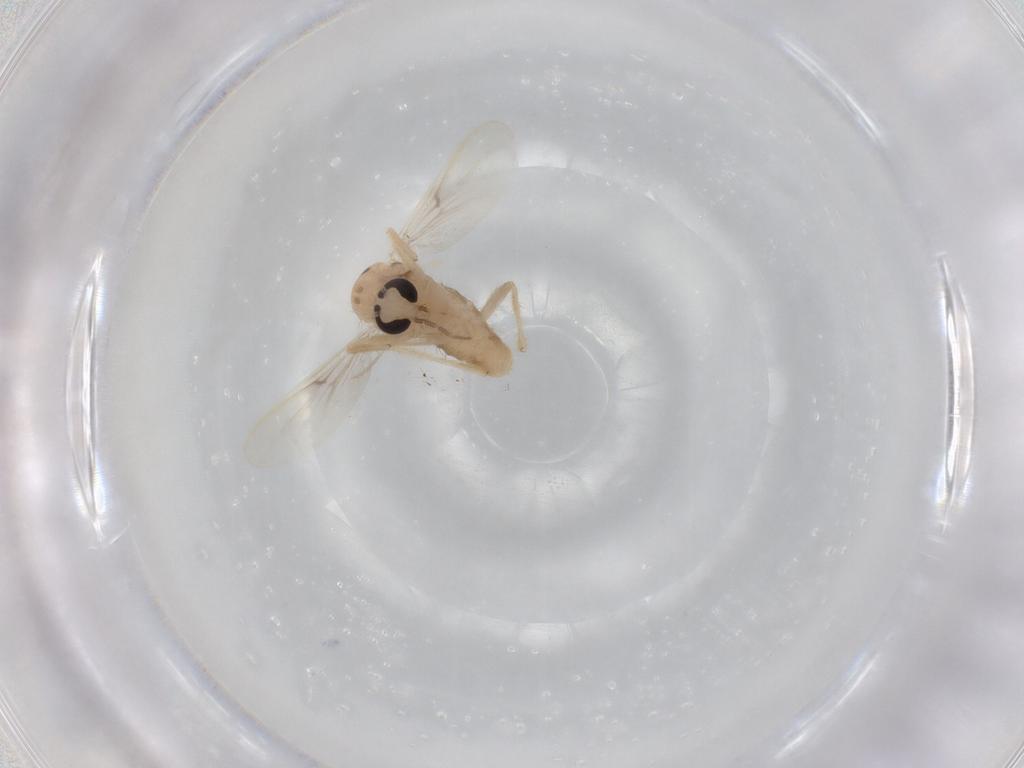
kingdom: Animalia
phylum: Arthropoda
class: Insecta
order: Diptera
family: Chironomidae
